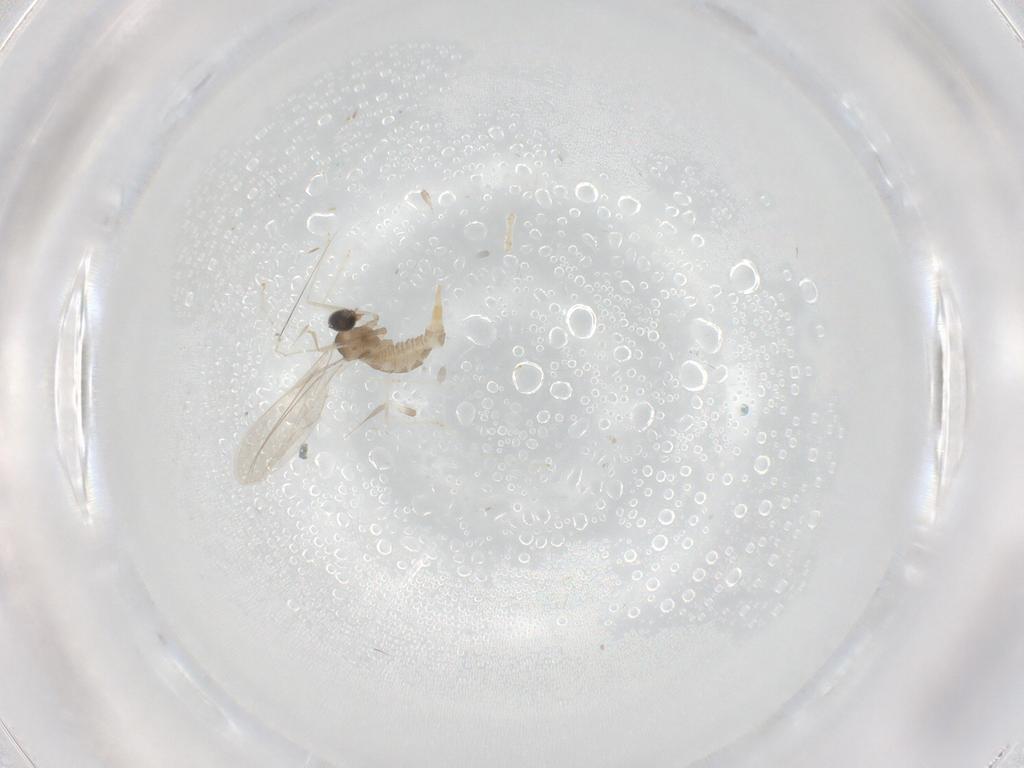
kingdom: Animalia
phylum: Arthropoda
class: Insecta
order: Diptera
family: Cecidomyiidae
